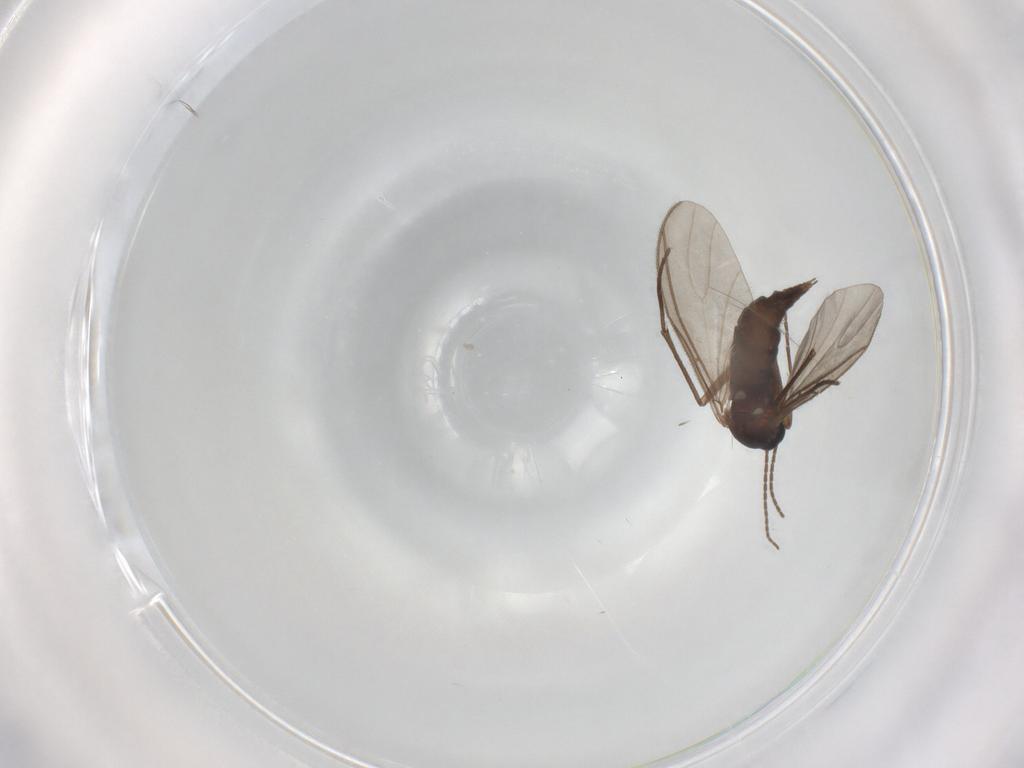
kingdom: Animalia
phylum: Arthropoda
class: Insecta
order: Diptera
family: Sciaridae
